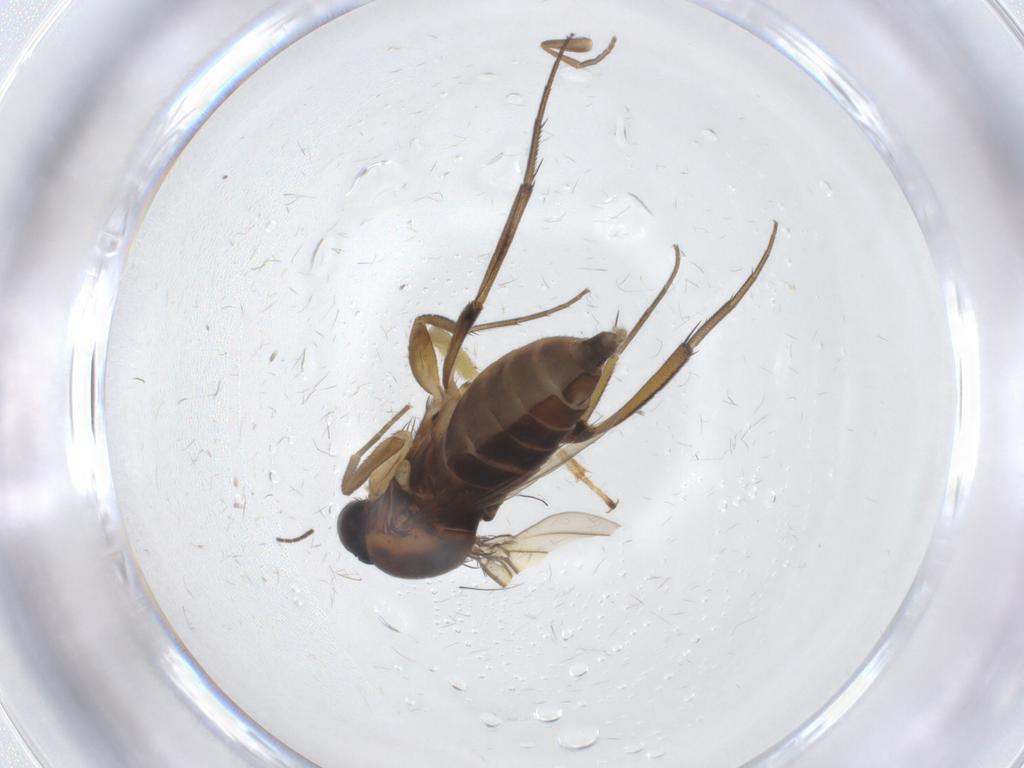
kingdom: Animalia
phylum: Arthropoda
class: Insecta
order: Diptera
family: Phoridae
